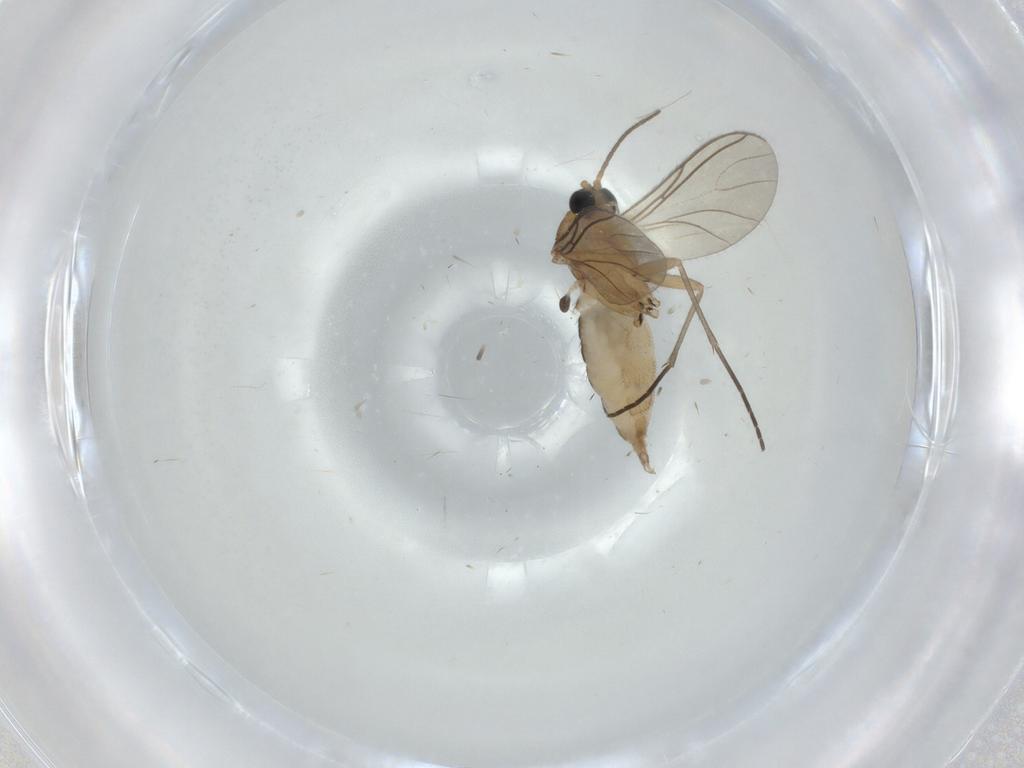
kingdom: Animalia
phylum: Arthropoda
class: Insecta
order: Diptera
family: Sciaridae
